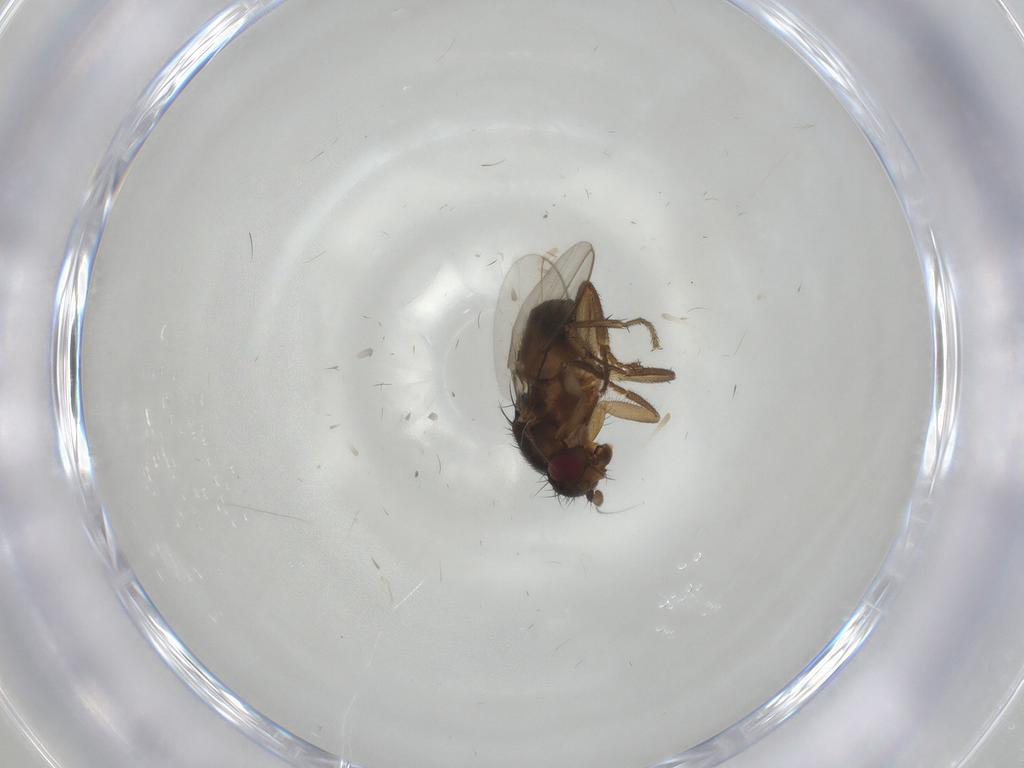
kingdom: Animalia
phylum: Arthropoda
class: Insecta
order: Diptera
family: Sphaeroceridae
